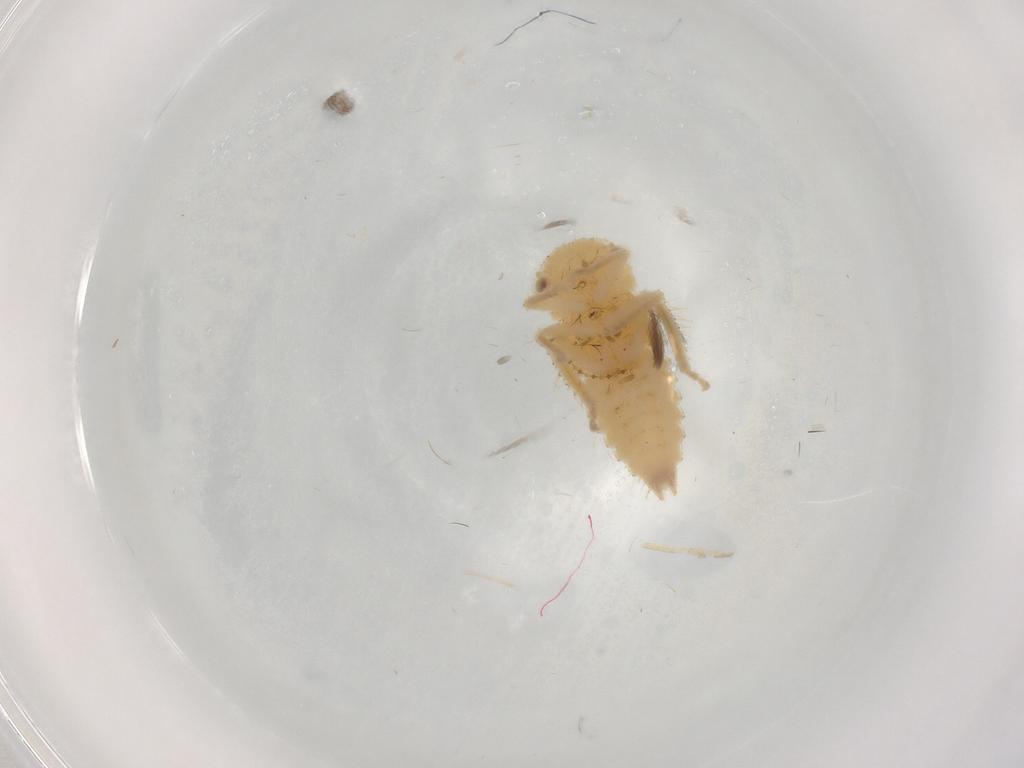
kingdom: Animalia
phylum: Arthropoda
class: Insecta
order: Hemiptera
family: Cicadellidae
